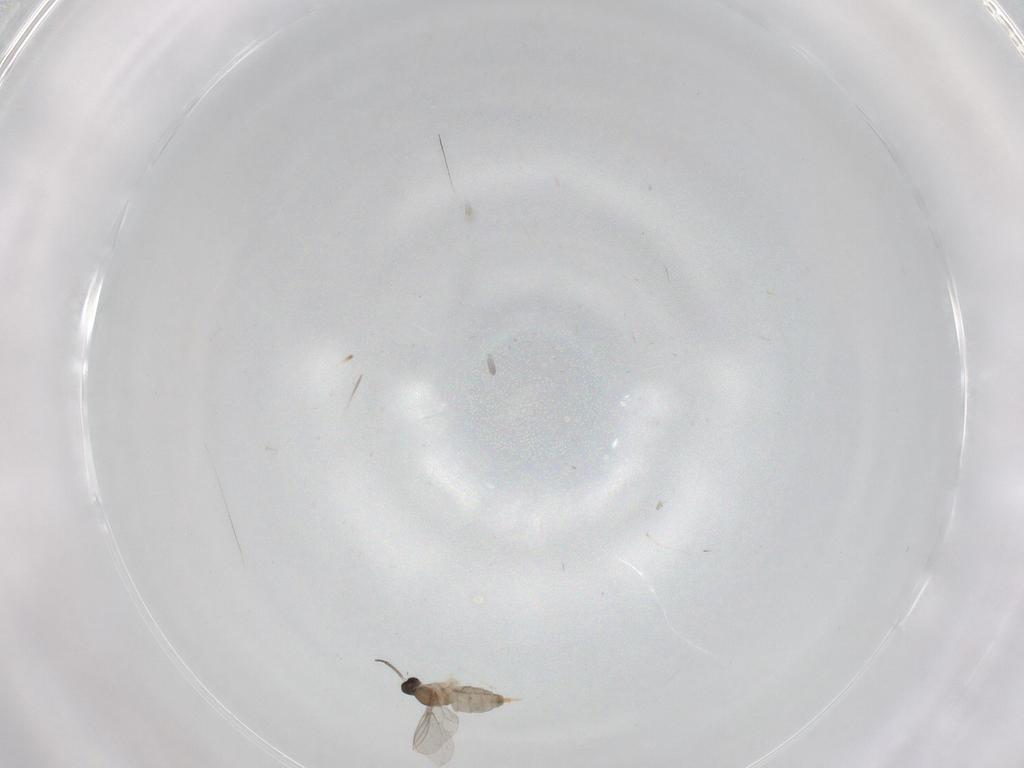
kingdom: Animalia
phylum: Arthropoda
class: Insecta
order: Diptera
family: Cecidomyiidae
